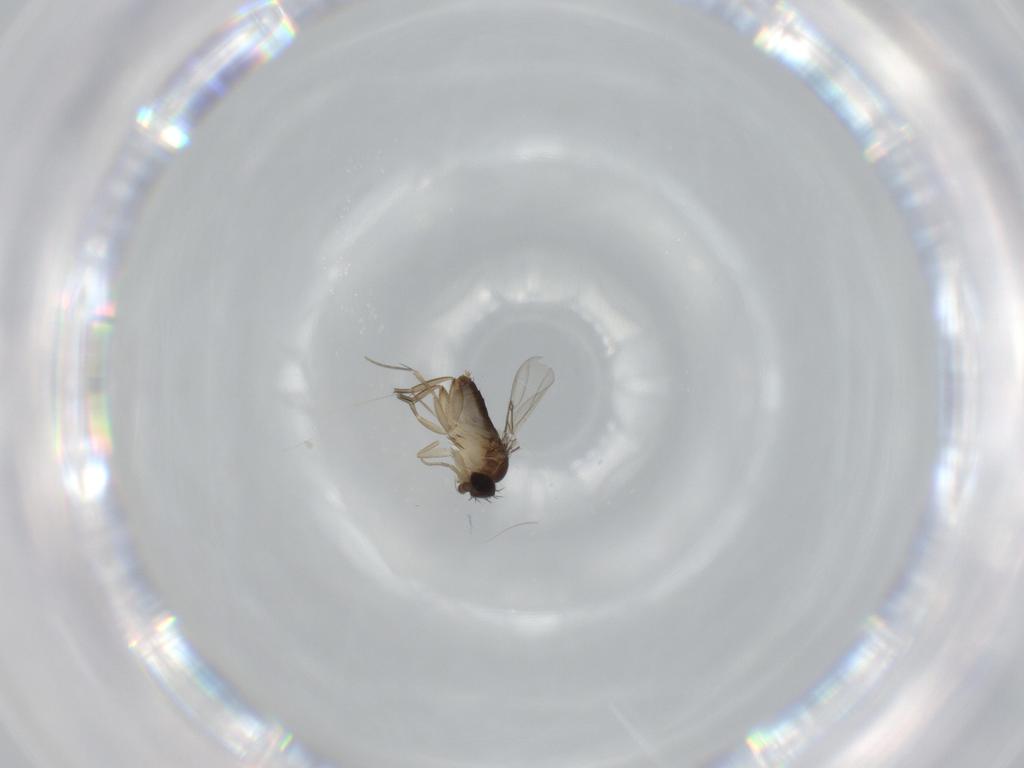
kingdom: Animalia
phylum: Arthropoda
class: Insecta
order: Diptera
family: Phoridae
